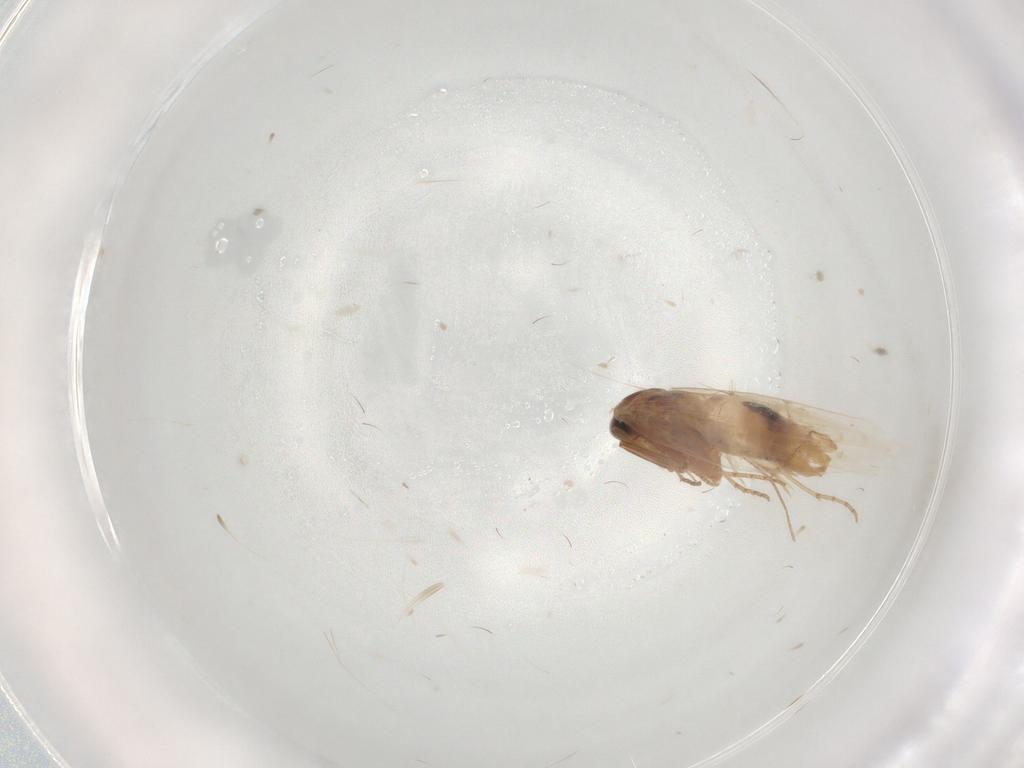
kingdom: Animalia
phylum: Arthropoda
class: Insecta
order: Lepidoptera
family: Bucculatricidae
